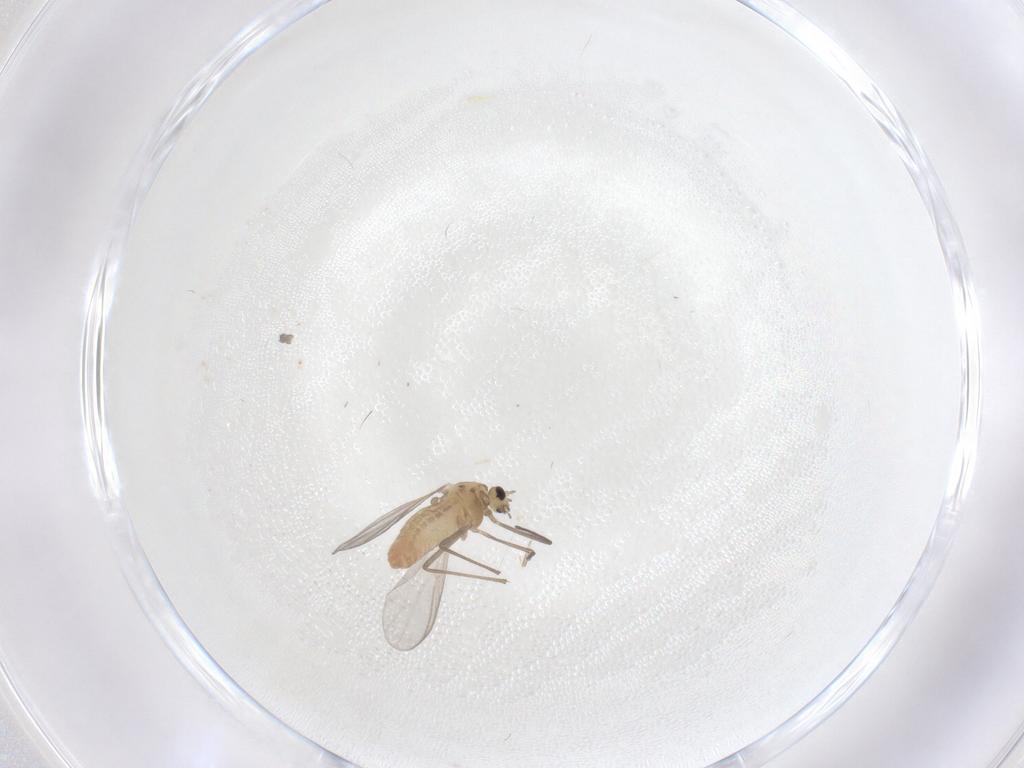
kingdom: Animalia
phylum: Arthropoda
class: Insecta
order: Diptera
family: Chironomidae
